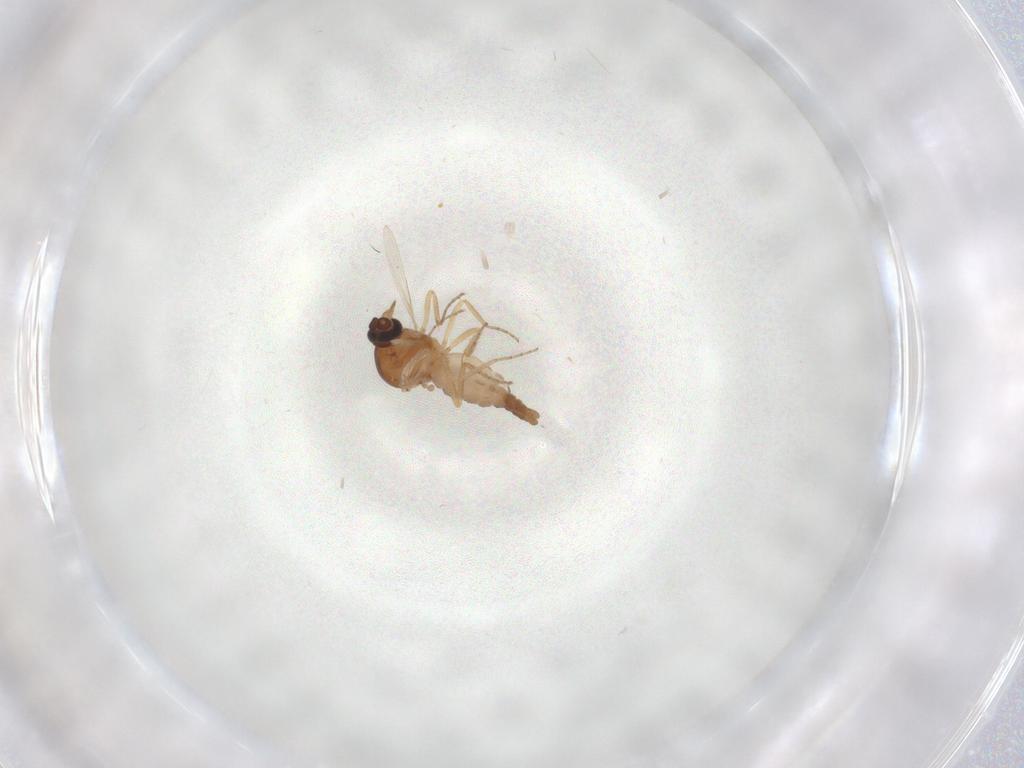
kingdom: Animalia
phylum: Arthropoda
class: Insecta
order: Diptera
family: Ceratopogonidae
